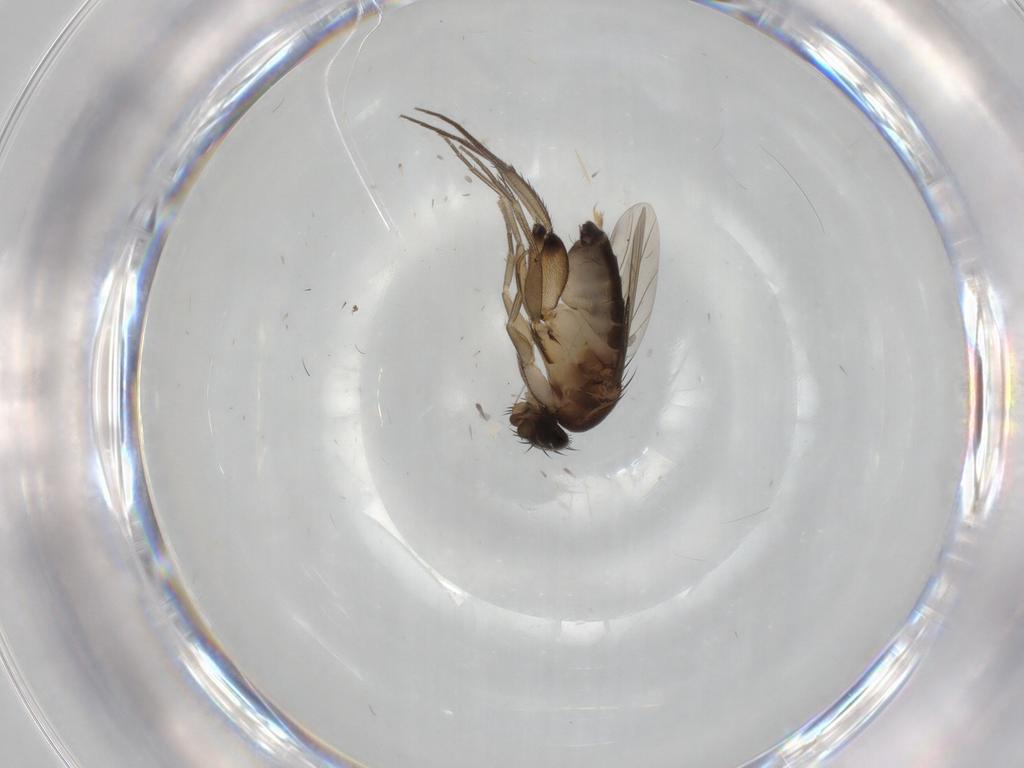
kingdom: Animalia
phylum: Arthropoda
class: Insecta
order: Diptera
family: Phoridae
